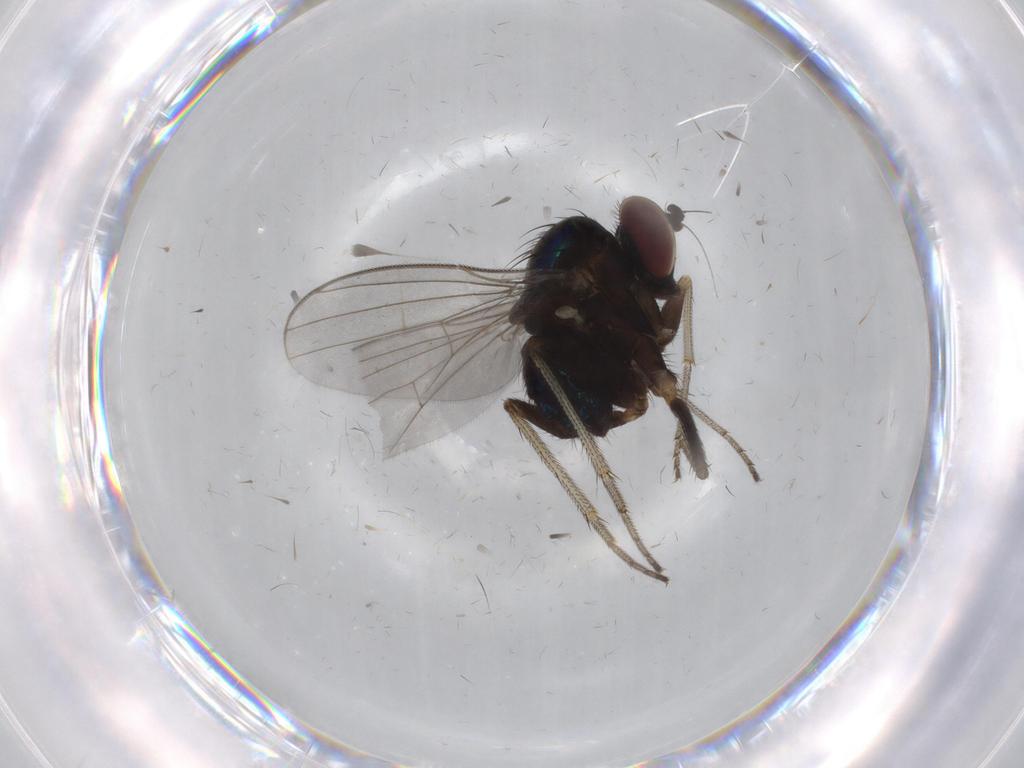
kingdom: Animalia
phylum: Arthropoda
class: Insecta
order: Diptera
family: Dolichopodidae
